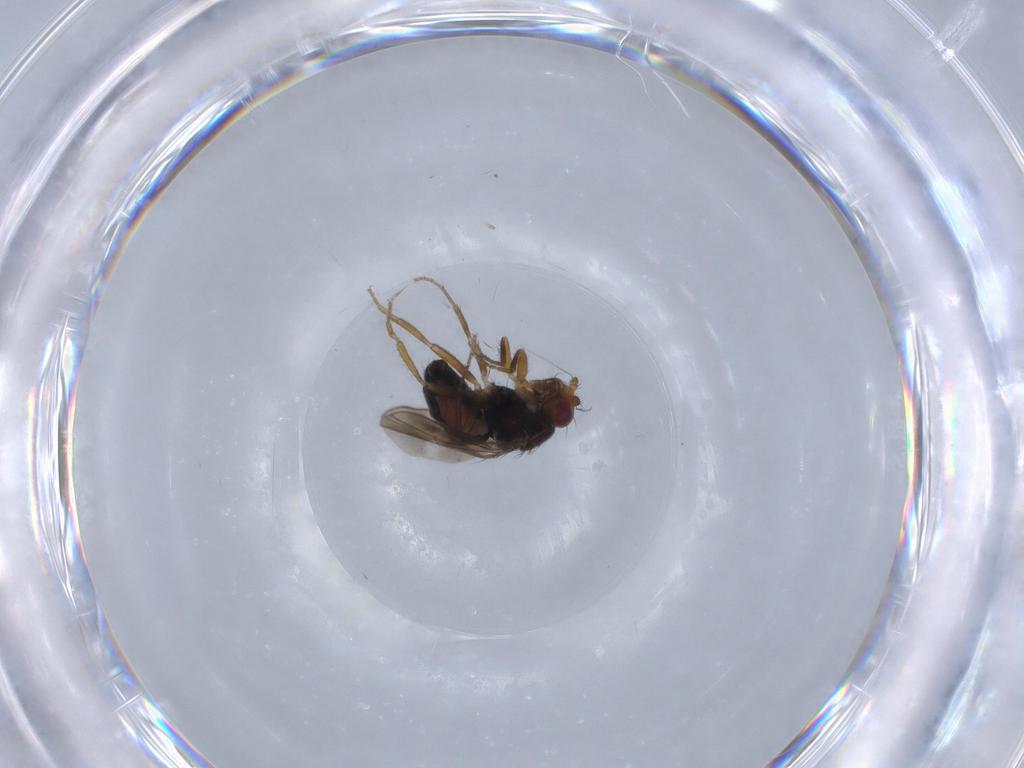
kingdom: Animalia
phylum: Arthropoda
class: Insecta
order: Diptera
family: Sphaeroceridae
